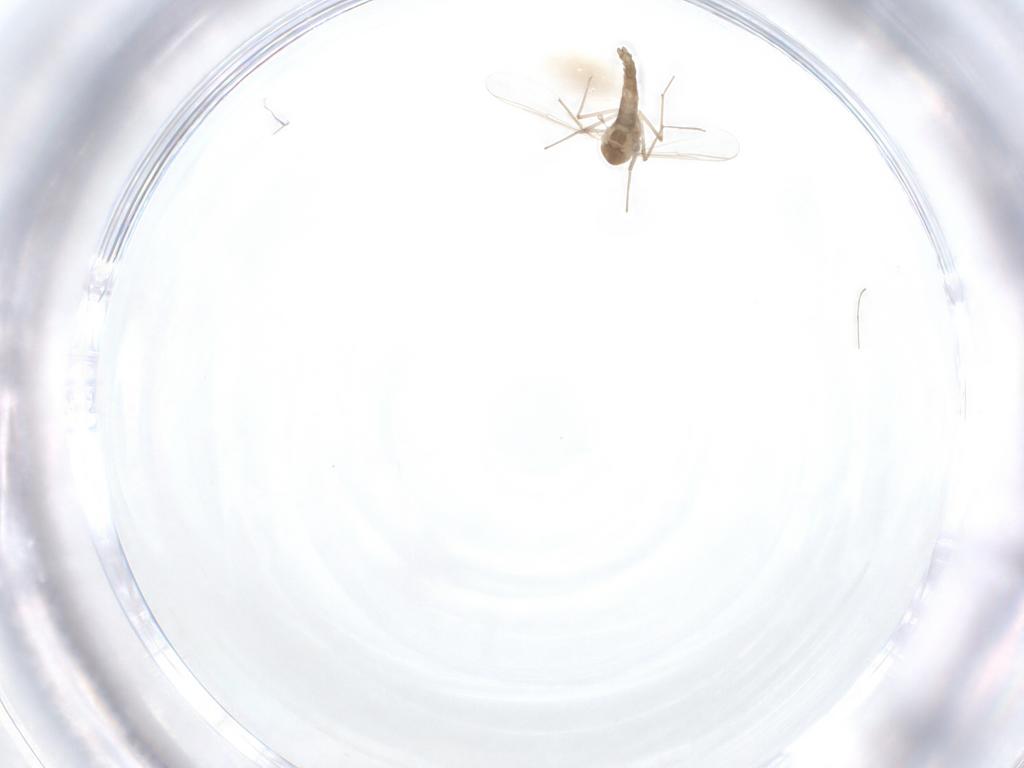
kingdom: Animalia
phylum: Arthropoda
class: Insecta
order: Diptera
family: Chironomidae
